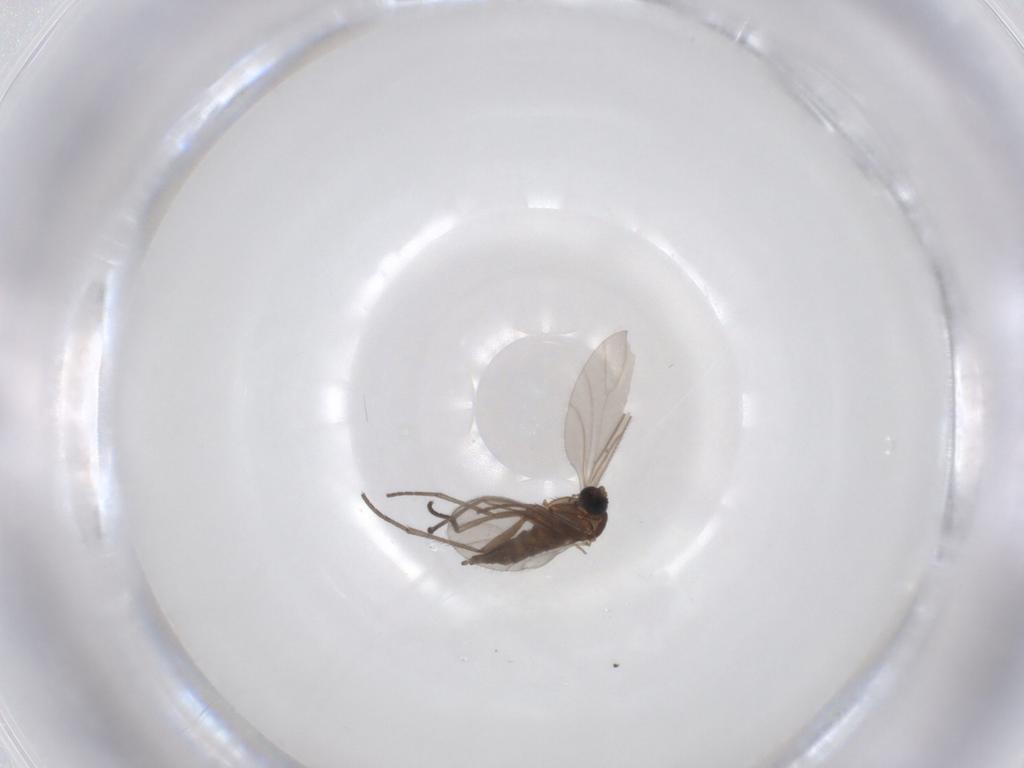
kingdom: Animalia
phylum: Arthropoda
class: Insecta
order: Diptera
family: Sciaridae
